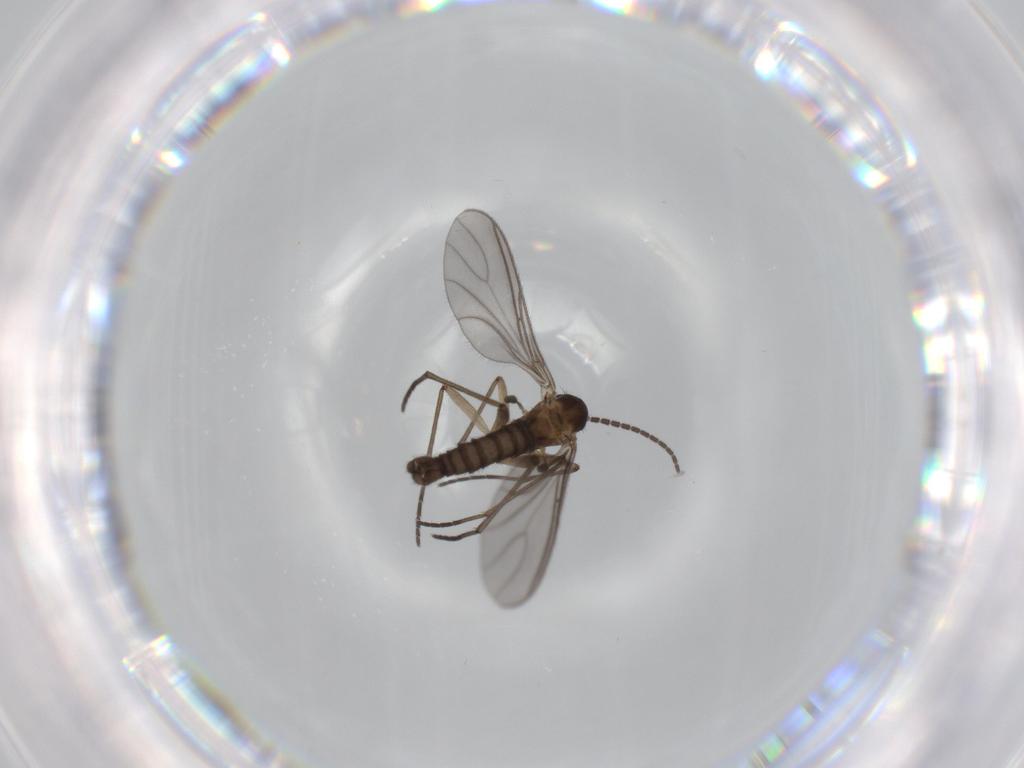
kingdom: Animalia
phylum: Arthropoda
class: Insecta
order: Diptera
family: Sciaridae
